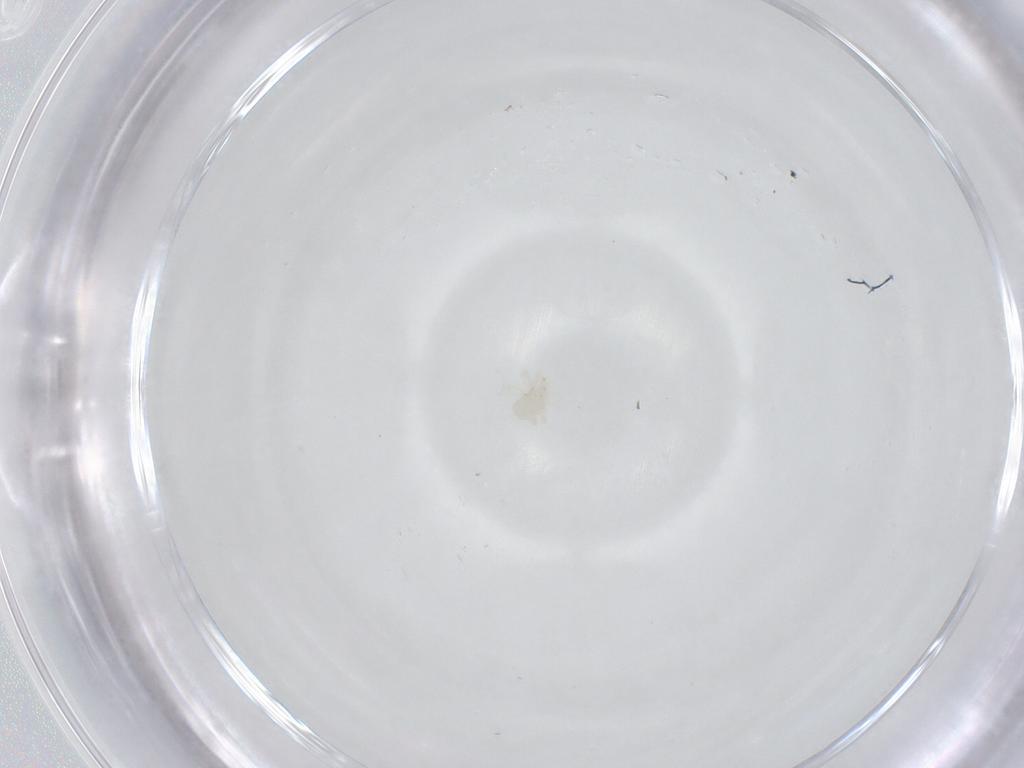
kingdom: Animalia
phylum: Arthropoda
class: Arachnida
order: Trombidiformes
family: Anystidae
